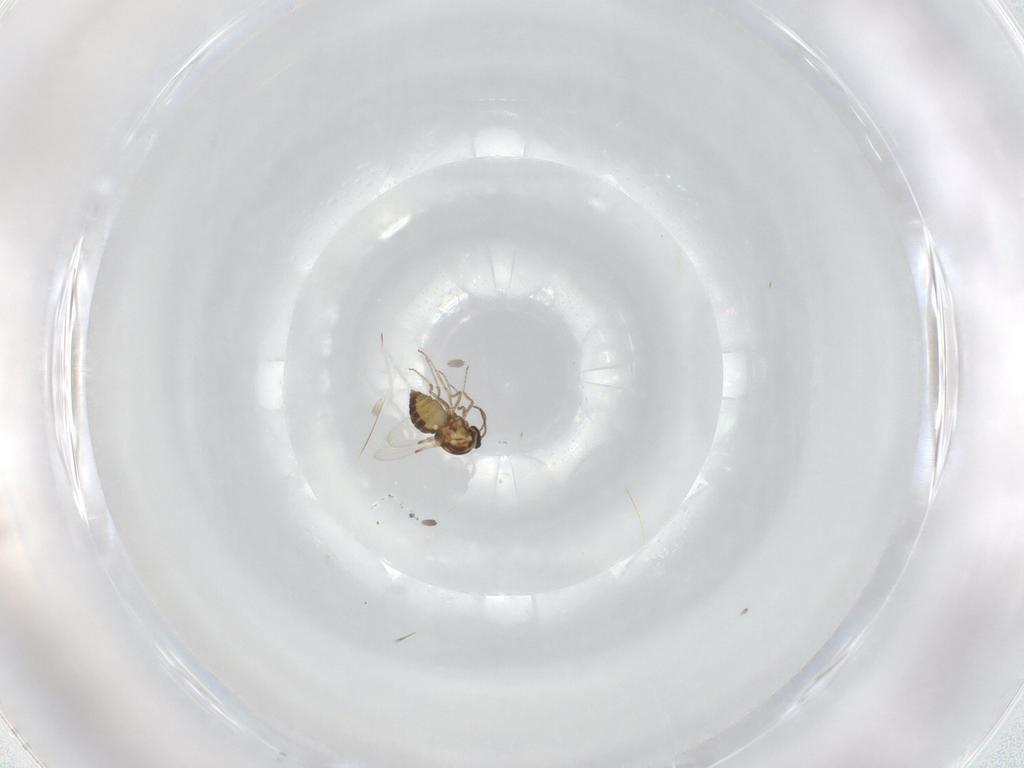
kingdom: Animalia
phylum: Arthropoda
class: Insecta
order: Diptera
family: Ceratopogonidae
